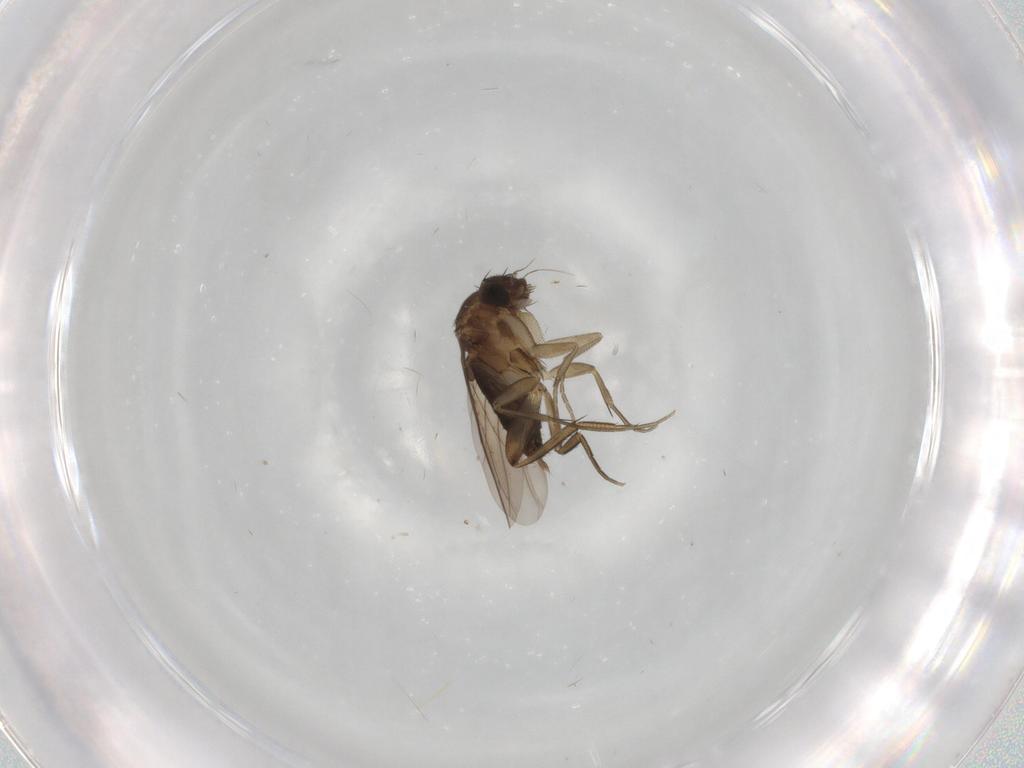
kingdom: Animalia
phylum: Arthropoda
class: Insecta
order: Diptera
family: Phoridae
